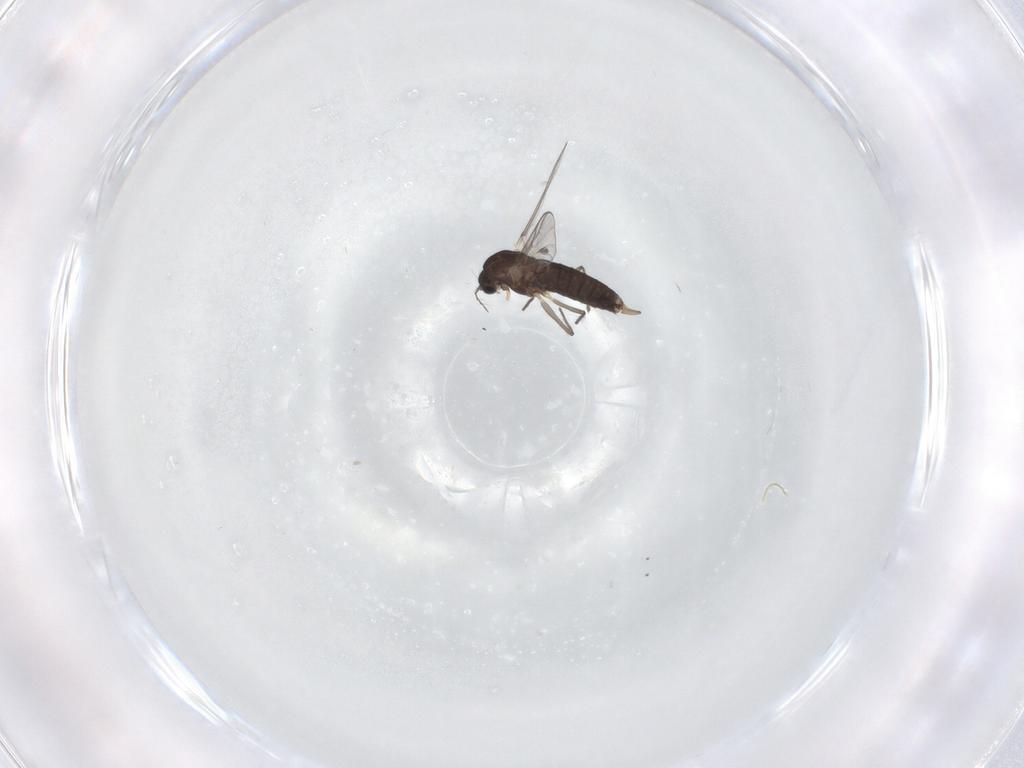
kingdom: Animalia
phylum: Arthropoda
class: Insecta
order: Diptera
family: Chironomidae
